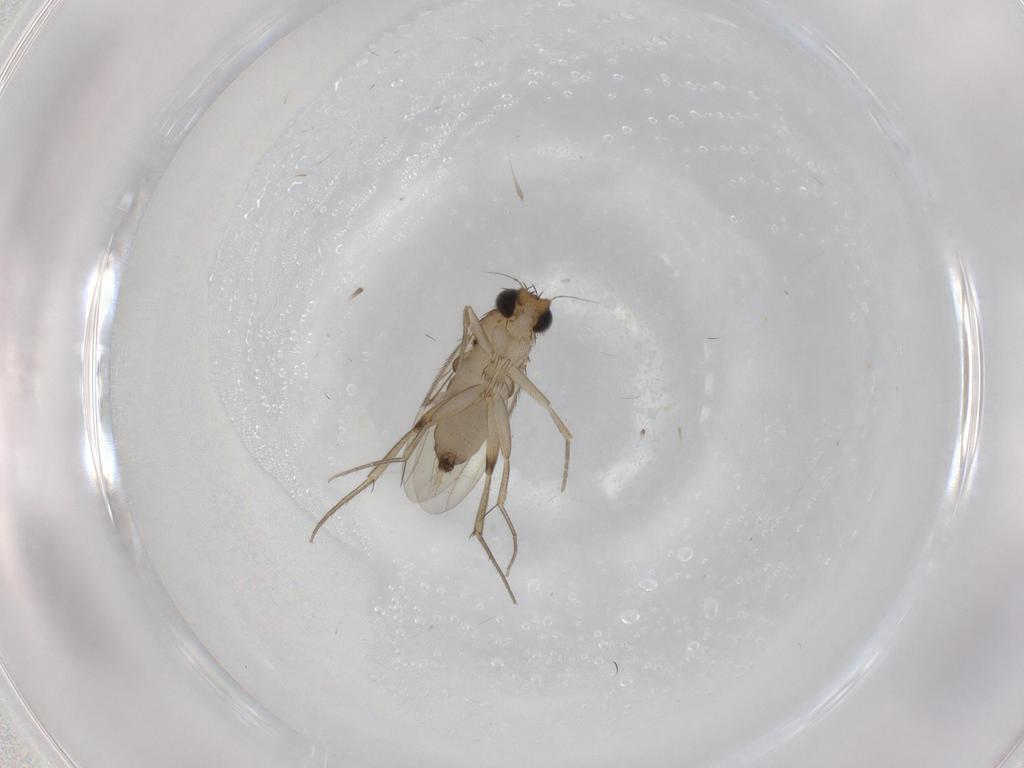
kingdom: Animalia
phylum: Arthropoda
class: Insecta
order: Diptera
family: Phoridae
